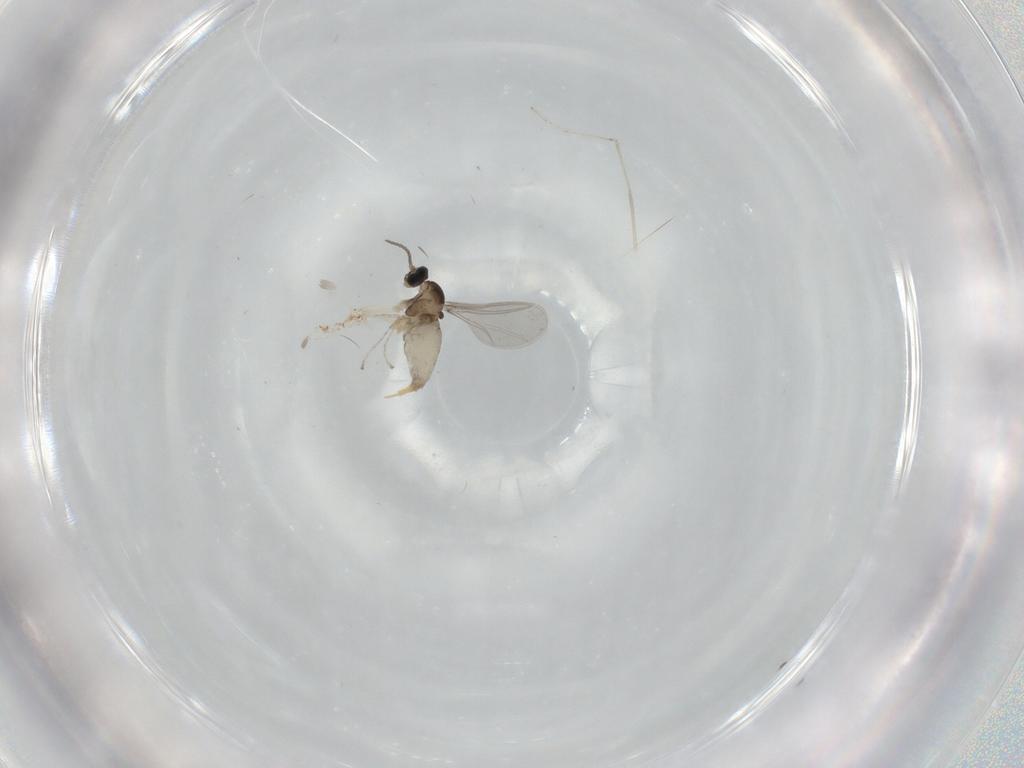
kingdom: Animalia
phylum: Arthropoda
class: Insecta
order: Diptera
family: Cecidomyiidae
